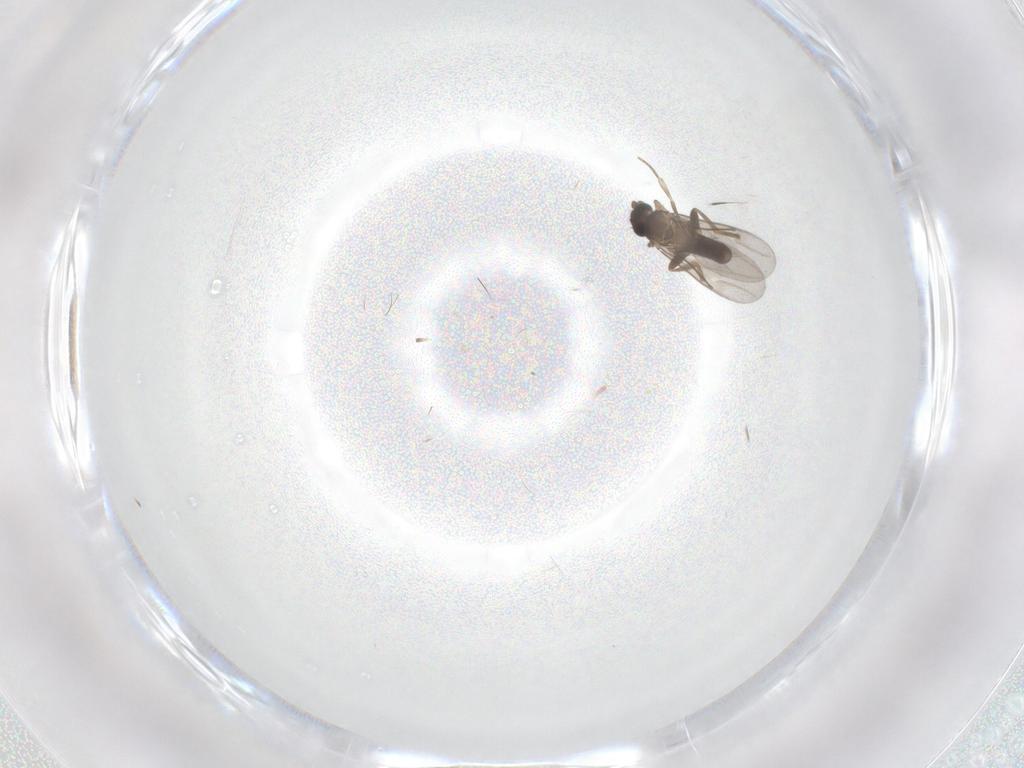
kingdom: Animalia
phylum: Arthropoda
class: Insecta
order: Diptera
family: Cecidomyiidae
